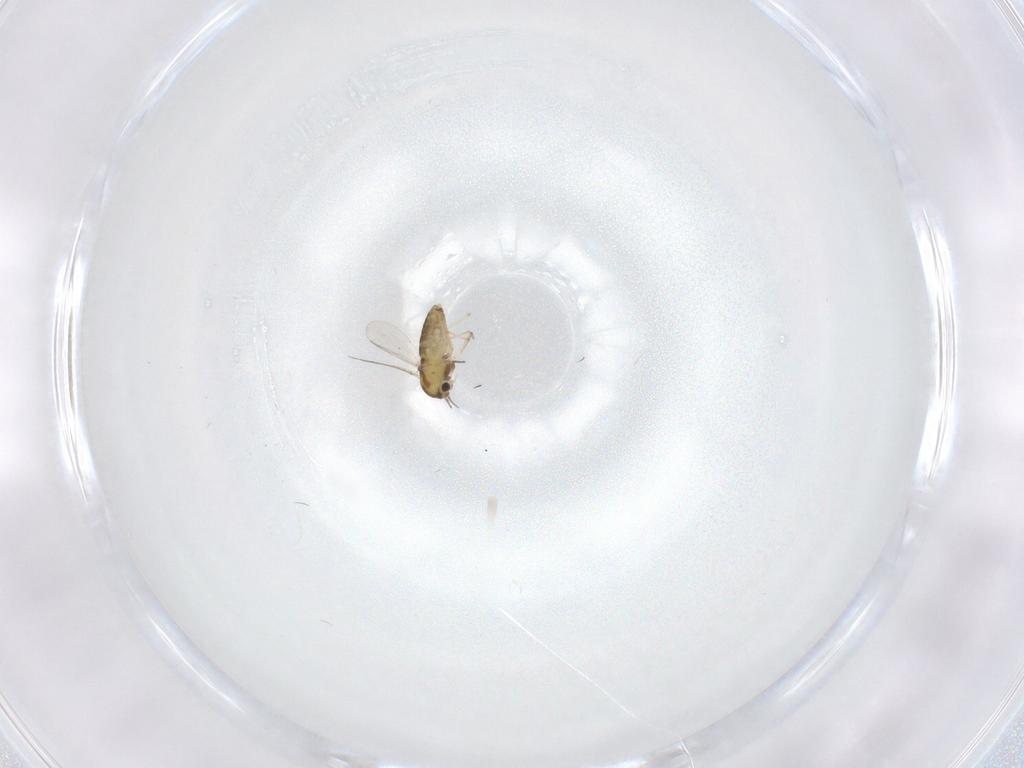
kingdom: Animalia
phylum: Arthropoda
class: Insecta
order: Diptera
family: Chironomidae
